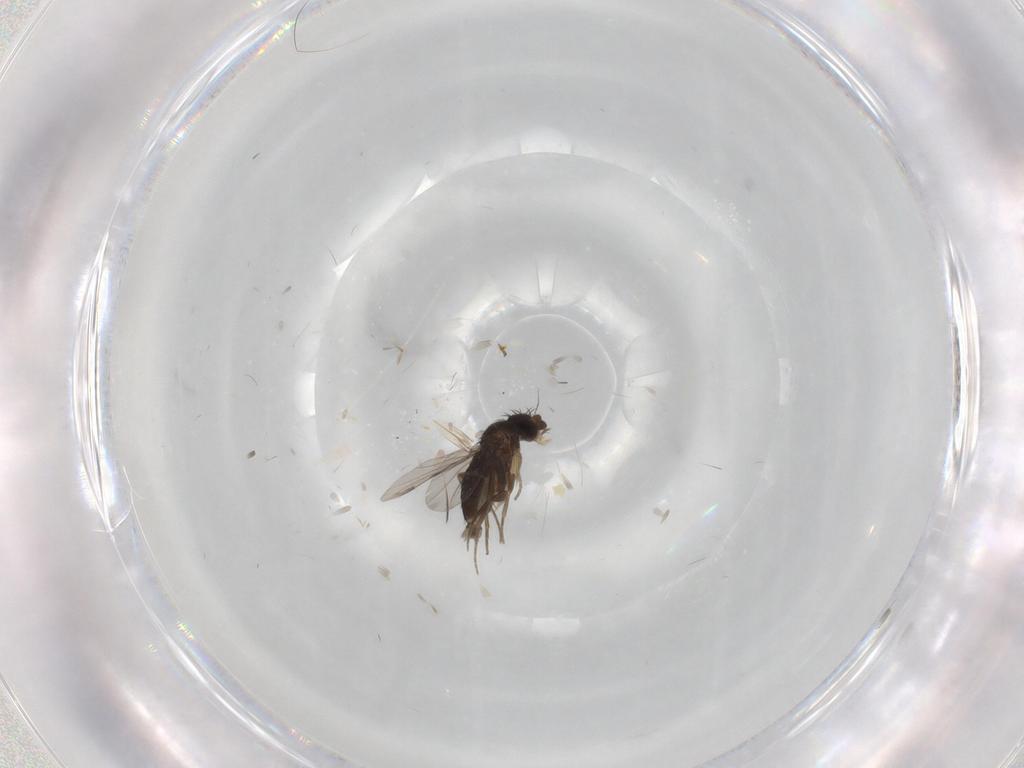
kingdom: Animalia
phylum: Arthropoda
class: Insecta
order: Diptera
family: Phoridae
